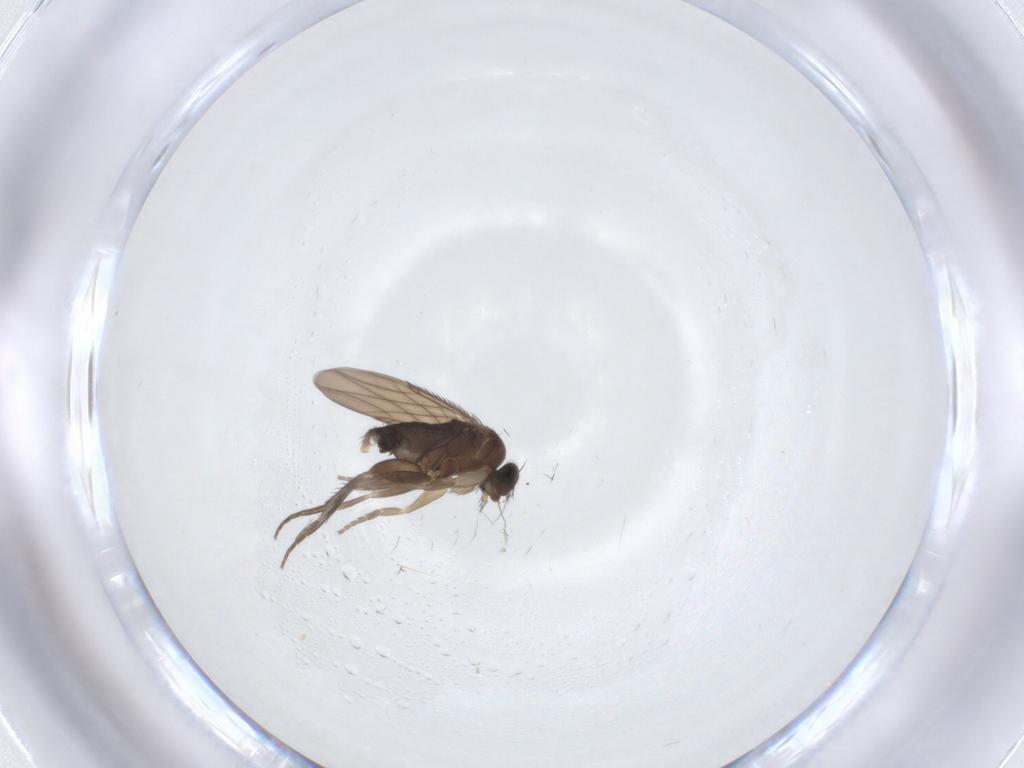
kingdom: Animalia
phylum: Arthropoda
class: Insecta
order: Diptera
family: Phoridae
